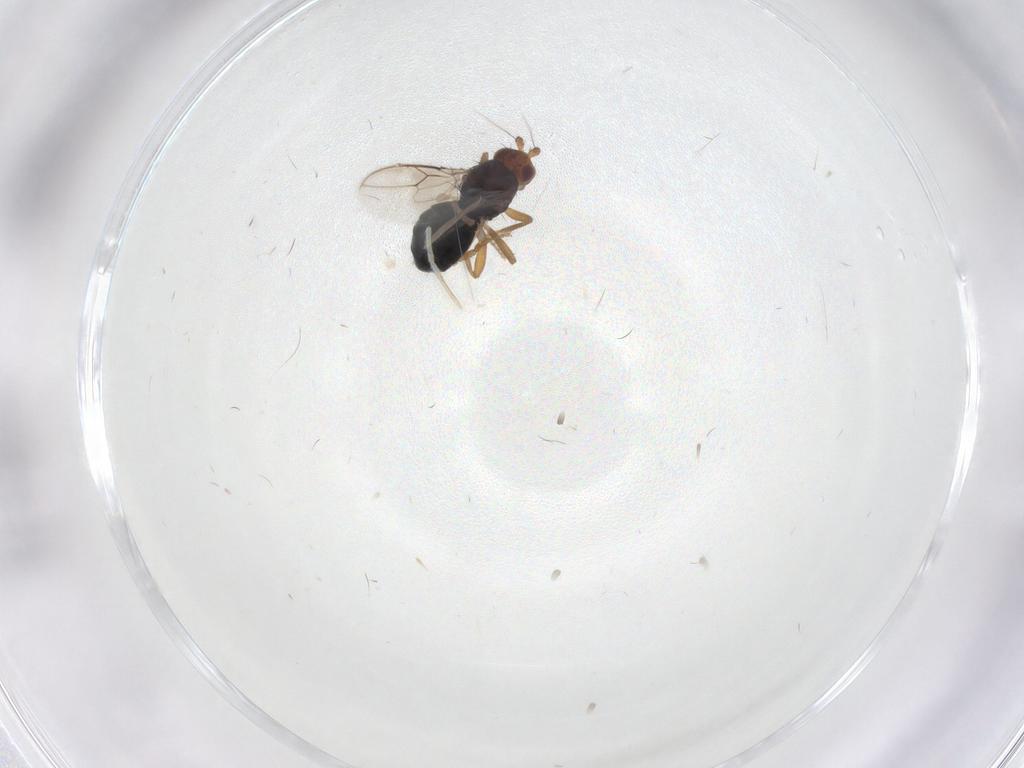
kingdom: Animalia
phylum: Arthropoda
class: Insecta
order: Diptera
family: Sphaeroceridae
